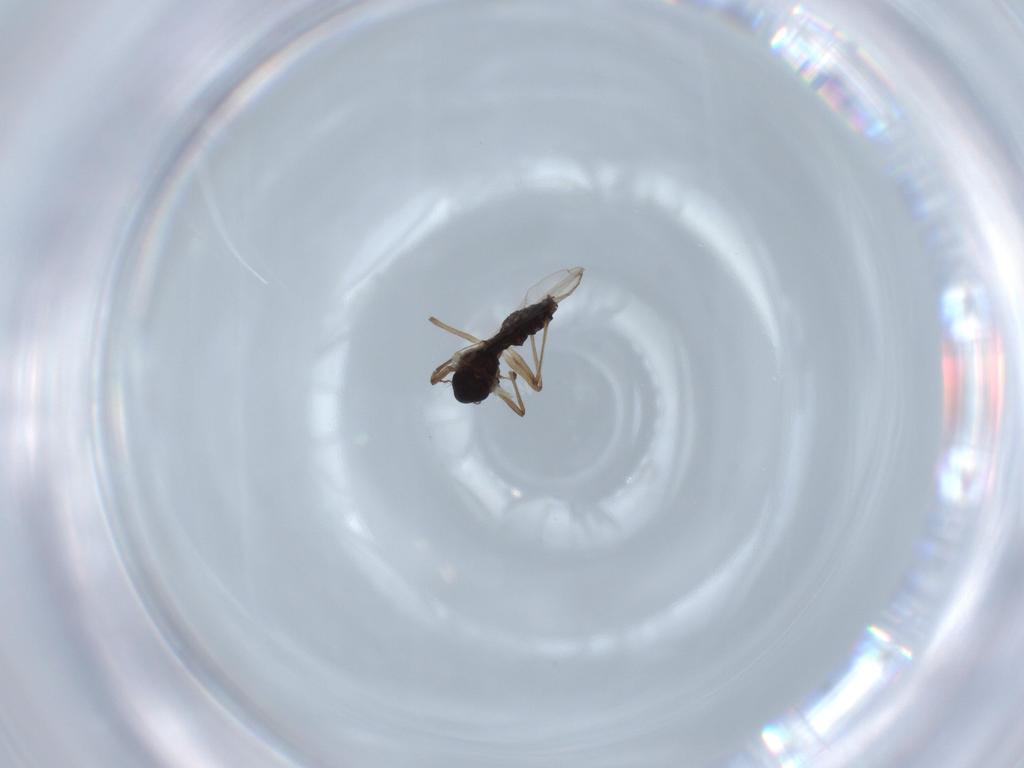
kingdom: Animalia
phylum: Arthropoda
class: Insecta
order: Diptera
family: Chironomidae
